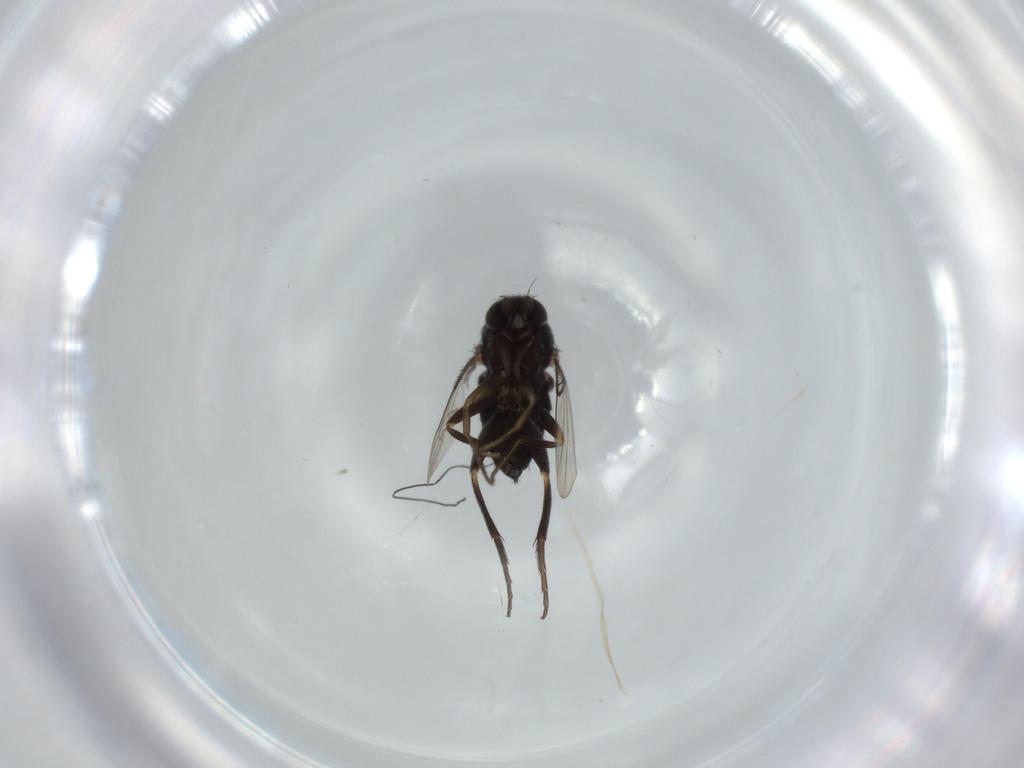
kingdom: Animalia
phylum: Arthropoda
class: Insecta
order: Diptera
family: Phoridae
